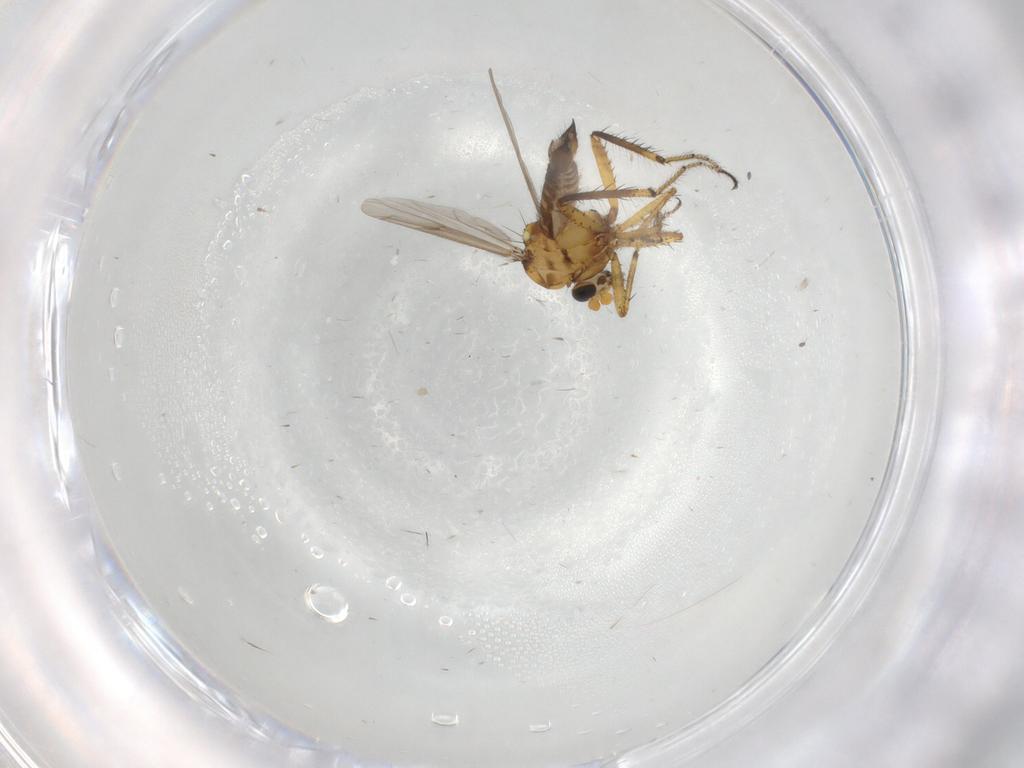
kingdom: Animalia
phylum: Arthropoda
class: Insecta
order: Diptera
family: Ceratopogonidae
